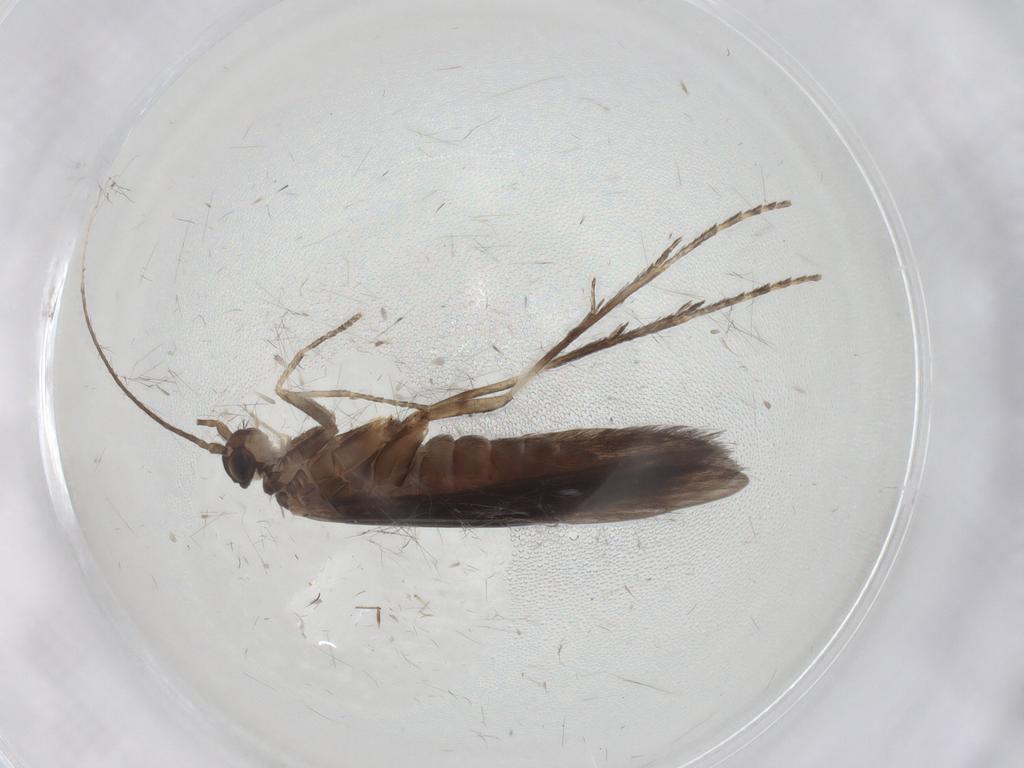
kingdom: Animalia
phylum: Arthropoda
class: Insecta
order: Trichoptera
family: Xiphocentronidae
